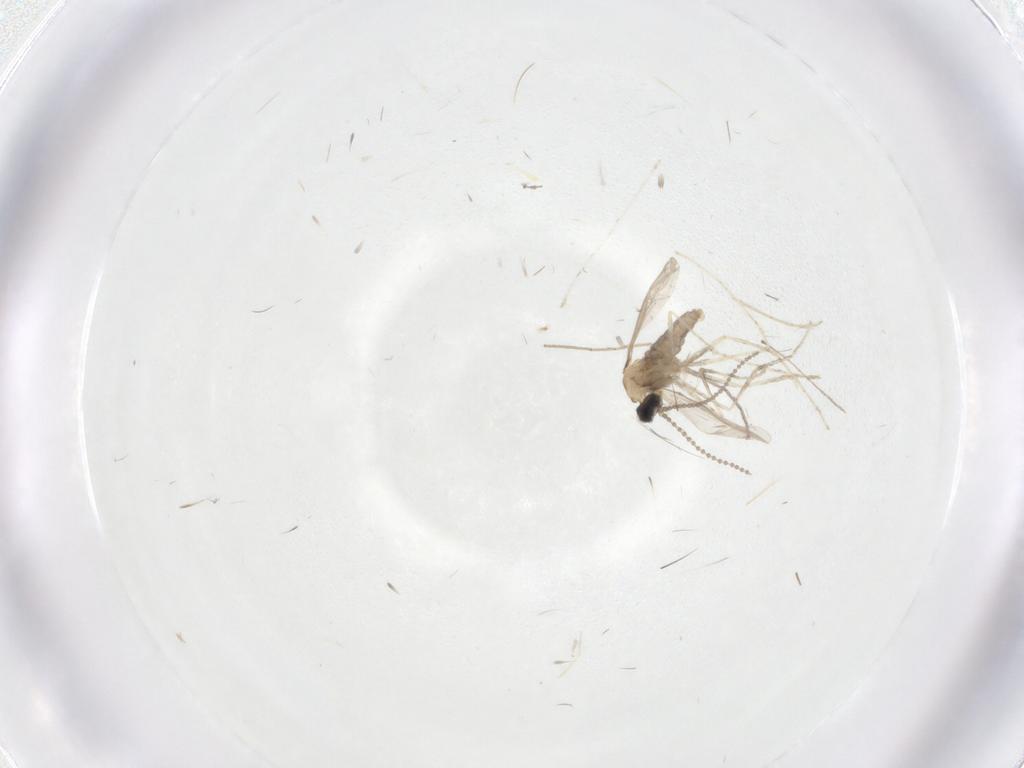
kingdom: Animalia
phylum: Arthropoda
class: Insecta
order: Diptera
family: Cecidomyiidae
